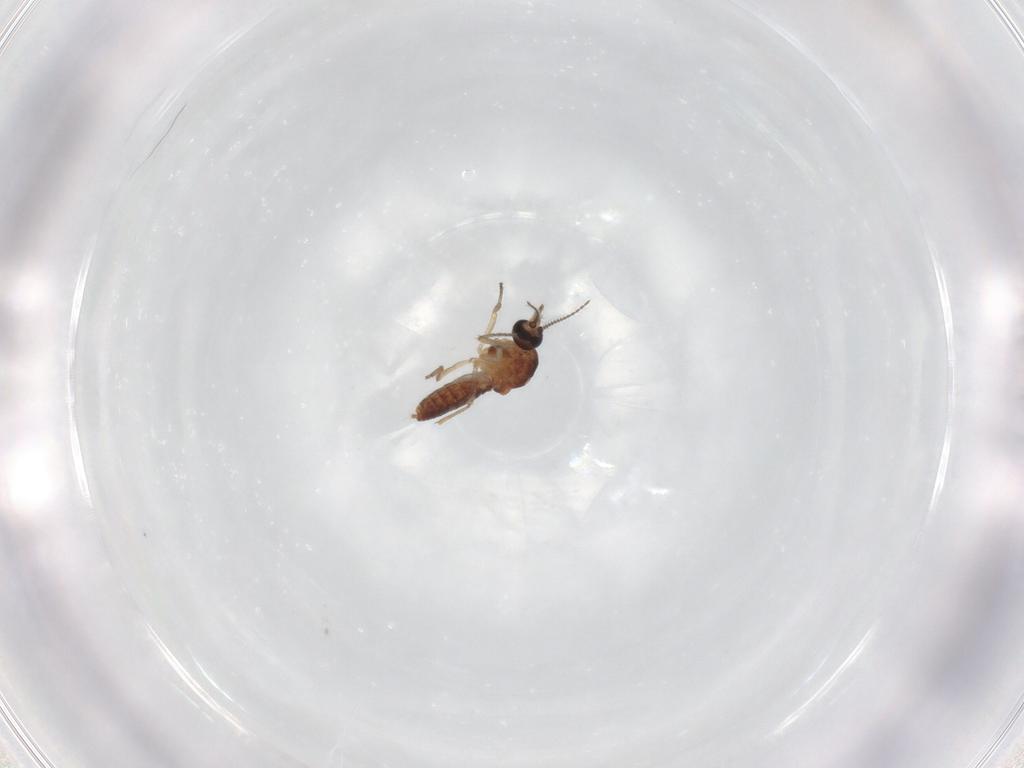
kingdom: Animalia
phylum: Arthropoda
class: Insecta
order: Diptera
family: Ceratopogonidae
